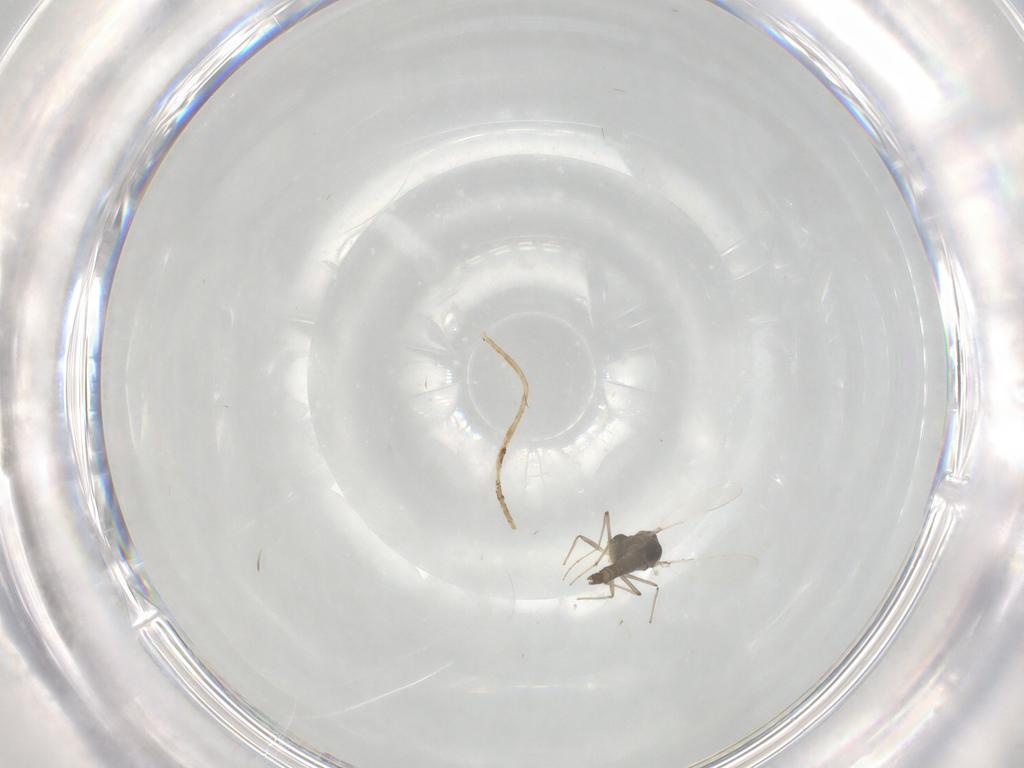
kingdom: Animalia
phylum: Arthropoda
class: Insecta
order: Diptera
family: Chironomidae
